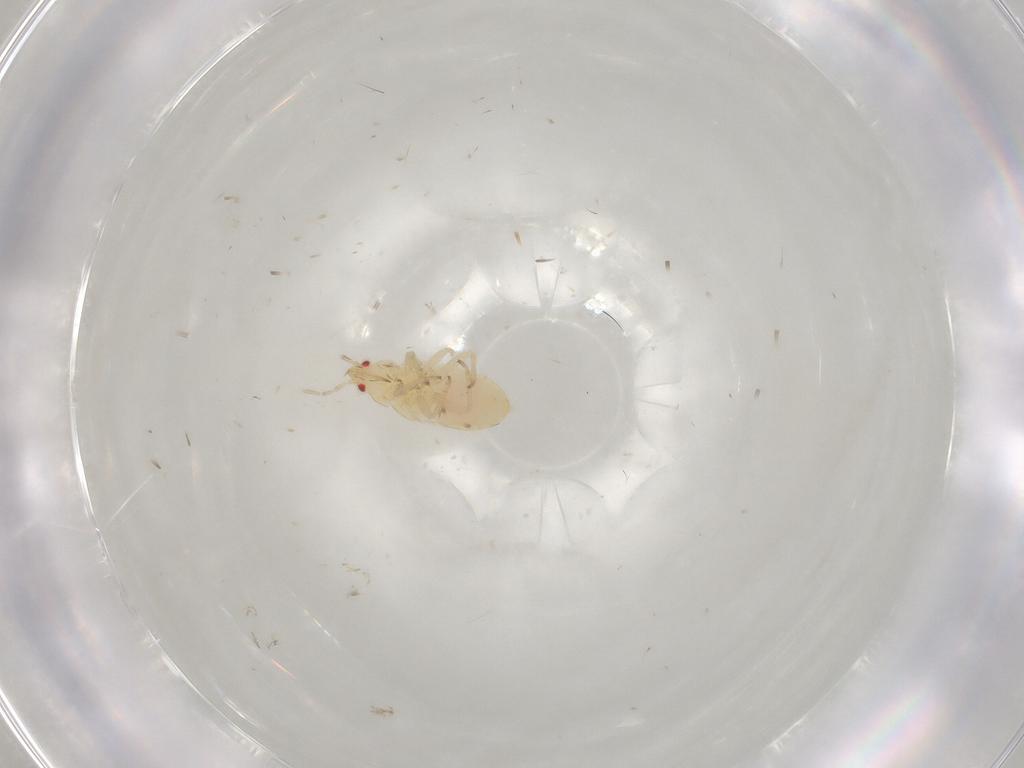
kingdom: Animalia
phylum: Arthropoda
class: Insecta
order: Hemiptera
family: Anthocoridae
